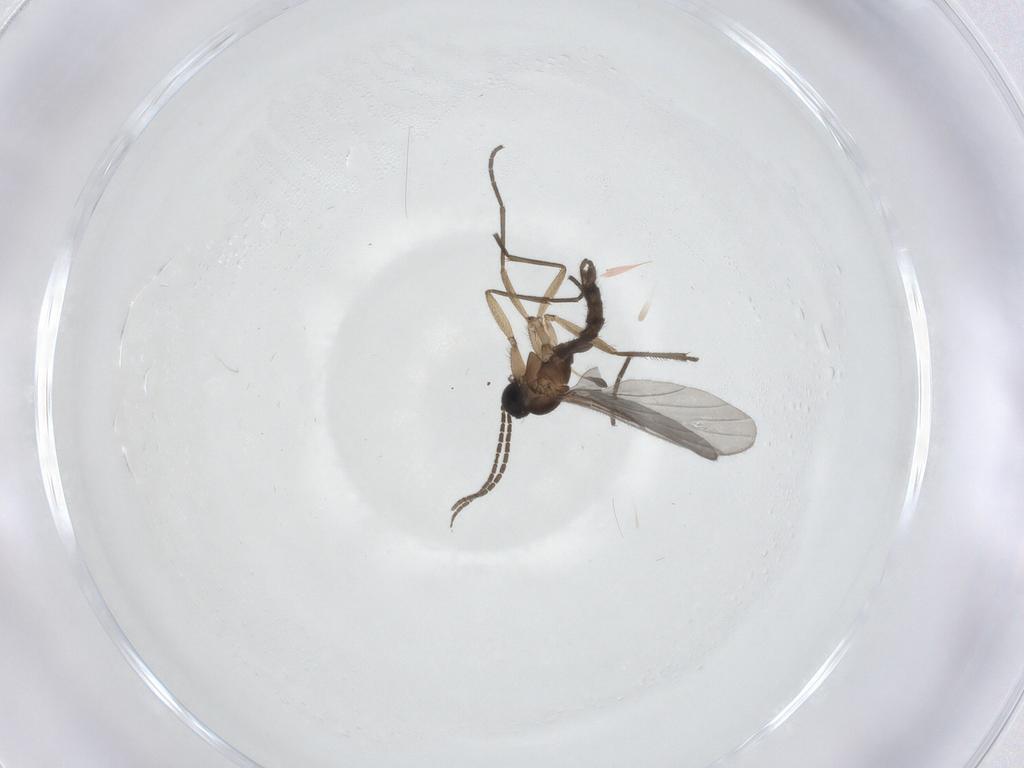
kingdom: Animalia
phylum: Arthropoda
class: Insecta
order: Diptera
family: Sciaridae
